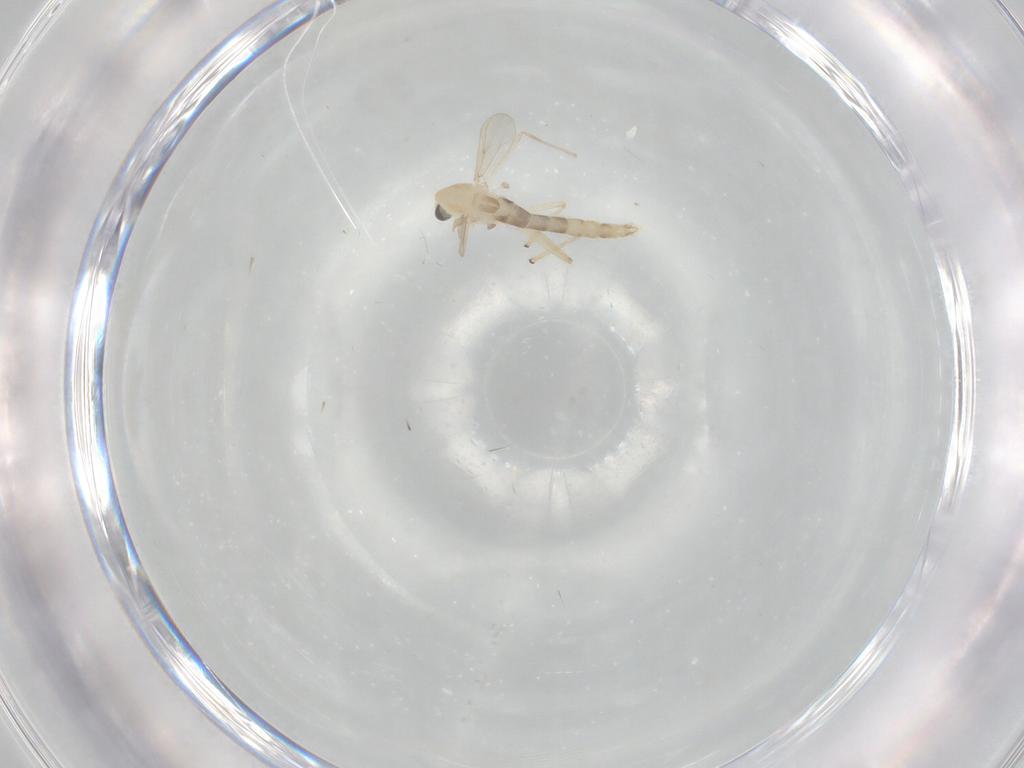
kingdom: Animalia
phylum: Arthropoda
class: Insecta
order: Diptera
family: Chironomidae
